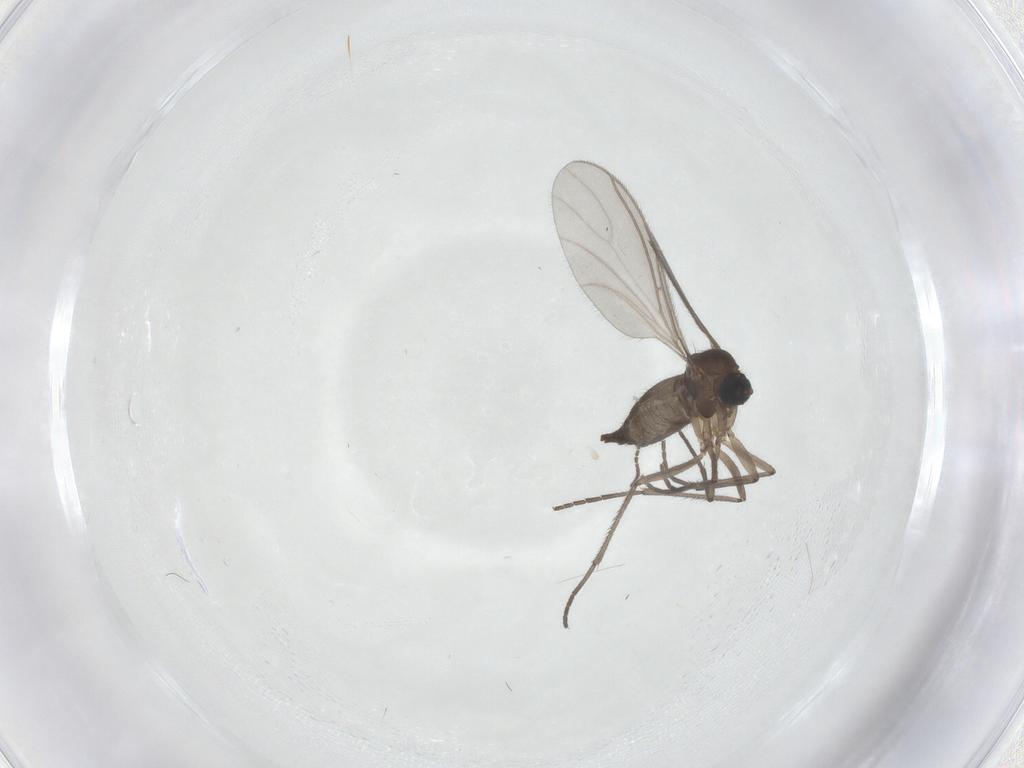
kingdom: Animalia
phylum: Arthropoda
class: Insecta
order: Diptera
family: Sciaridae
